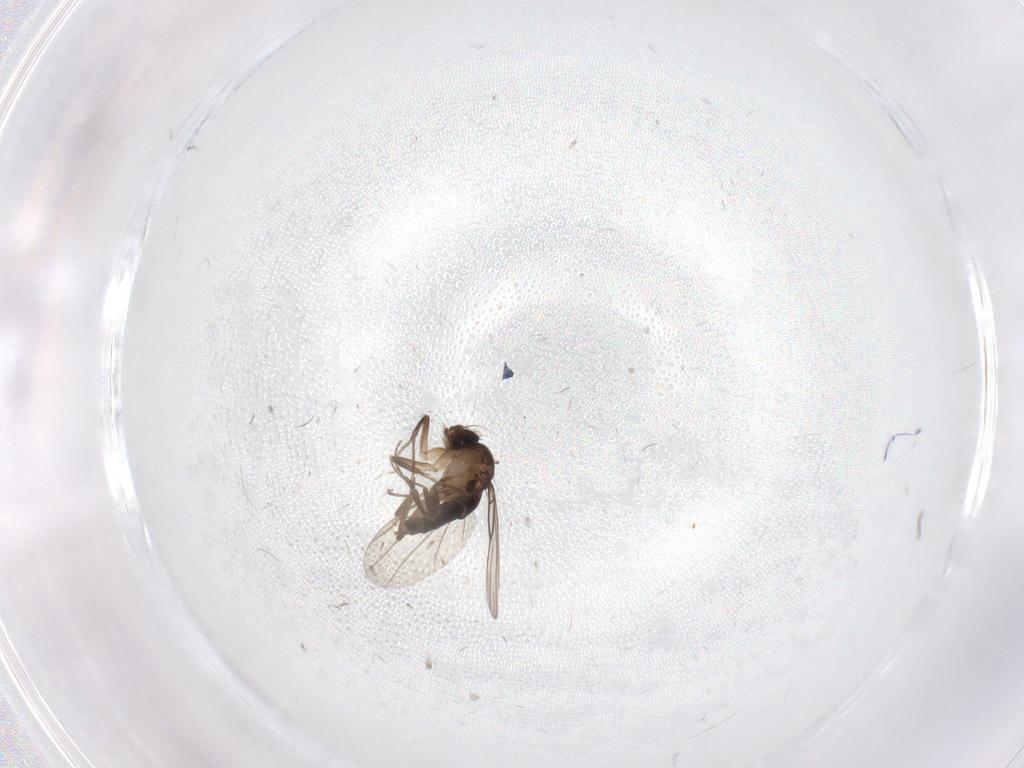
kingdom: Animalia
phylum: Arthropoda
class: Insecta
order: Diptera
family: Phoridae
